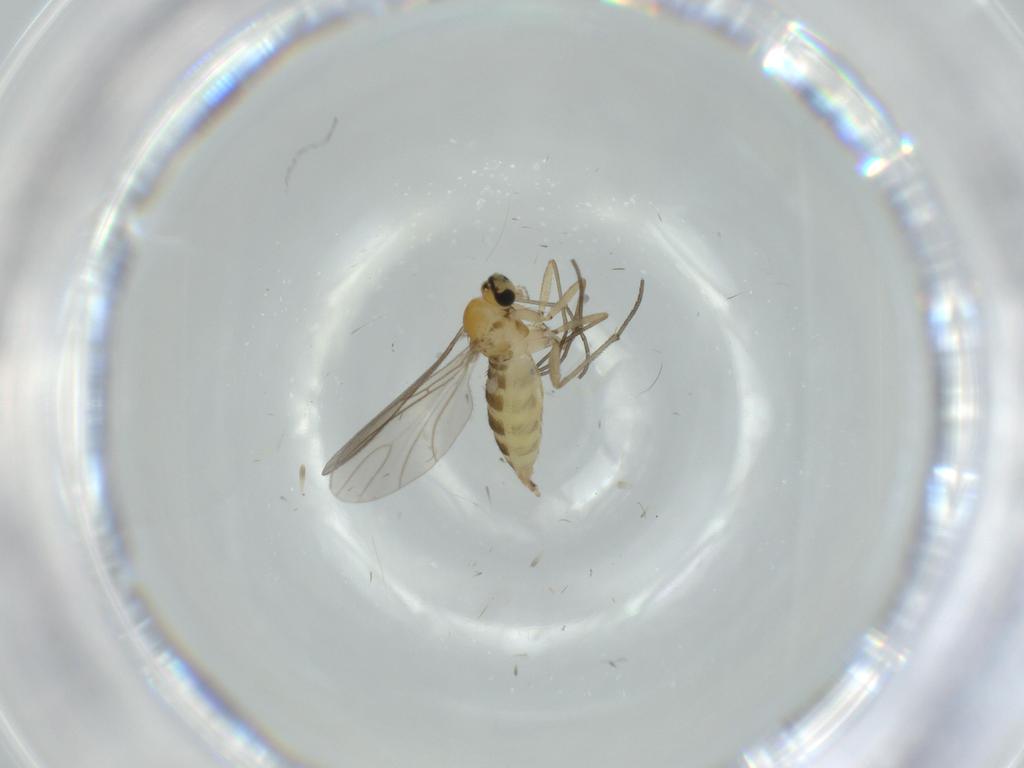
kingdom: Animalia
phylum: Arthropoda
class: Insecta
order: Diptera
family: Sciaridae
